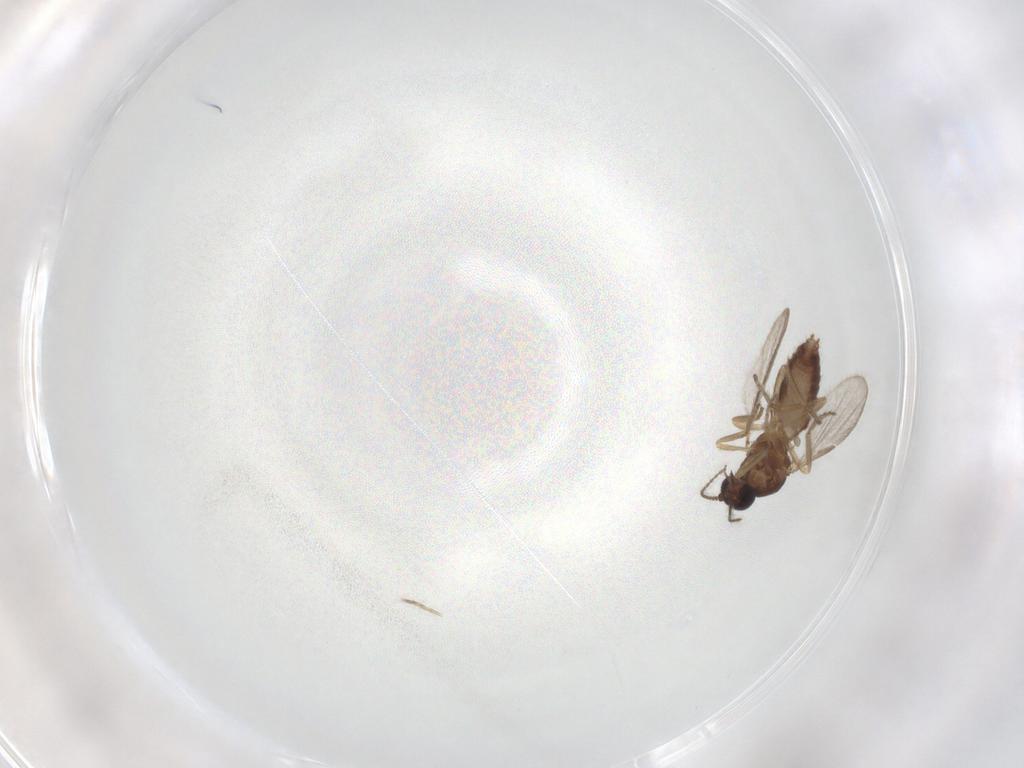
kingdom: Animalia
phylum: Arthropoda
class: Insecta
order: Diptera
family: Ceratopogonidae
